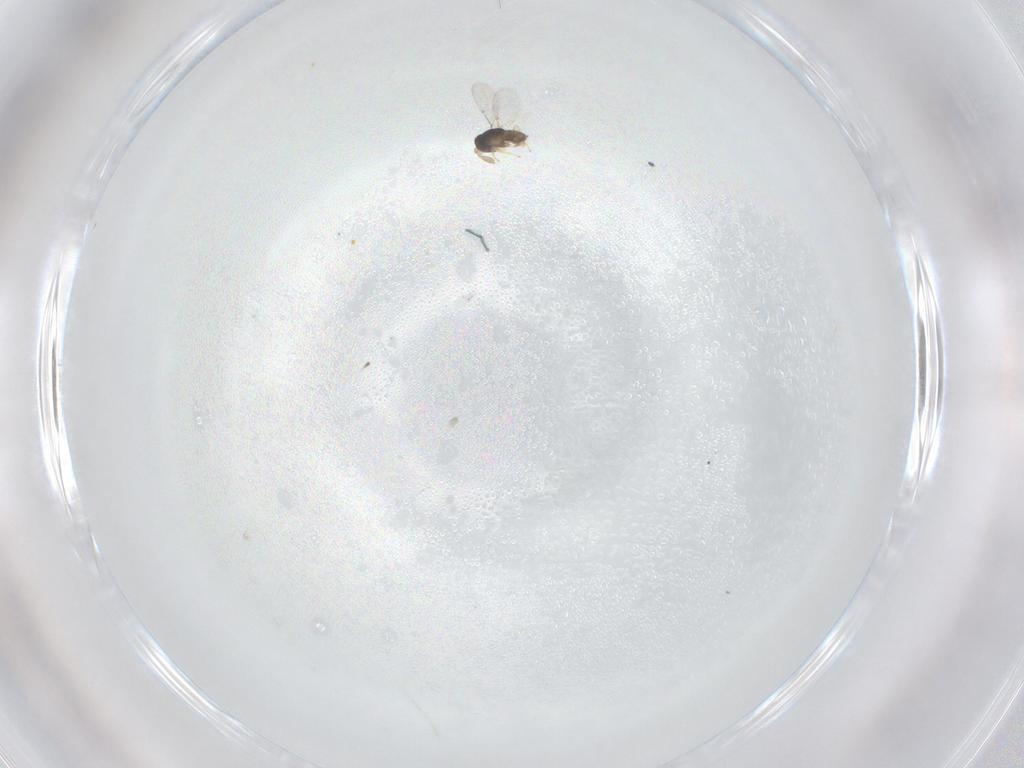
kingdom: Animalia
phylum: Arthropoda
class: Insecta
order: Hymenoptera
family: Encyrtidae
